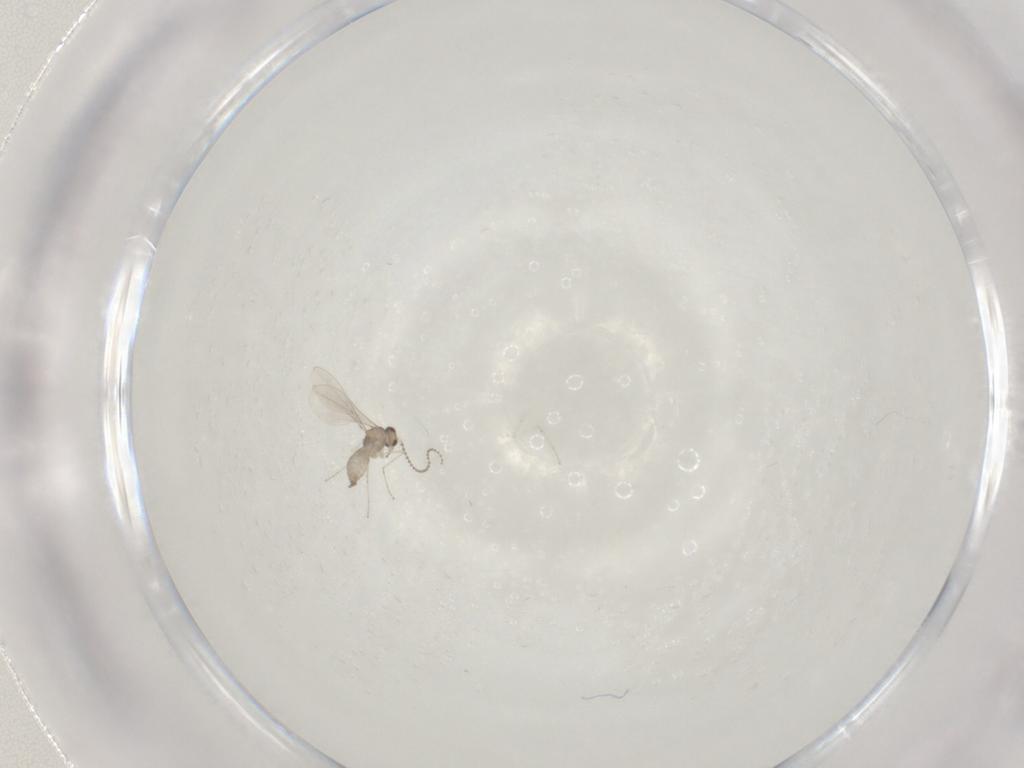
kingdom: Animalia
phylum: Arthropoda
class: Insecta
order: Diptera
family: Cecidomyiidae
